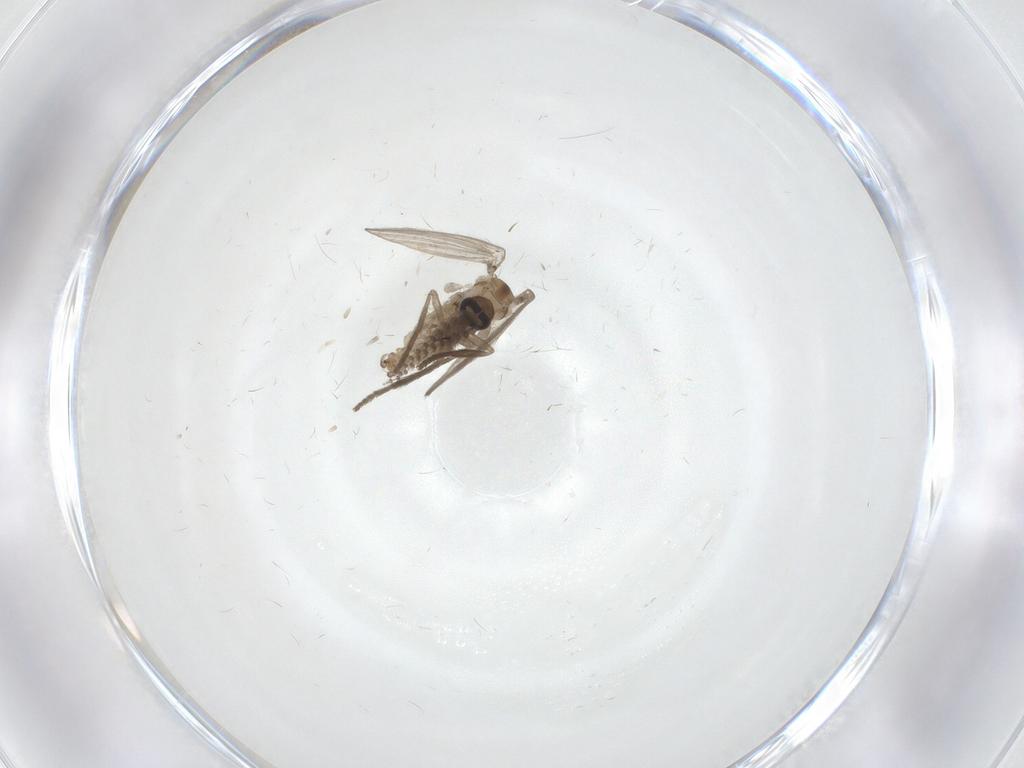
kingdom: Animalia
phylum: Arthropoda
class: Insecta
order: Diptera
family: Psychodidae
